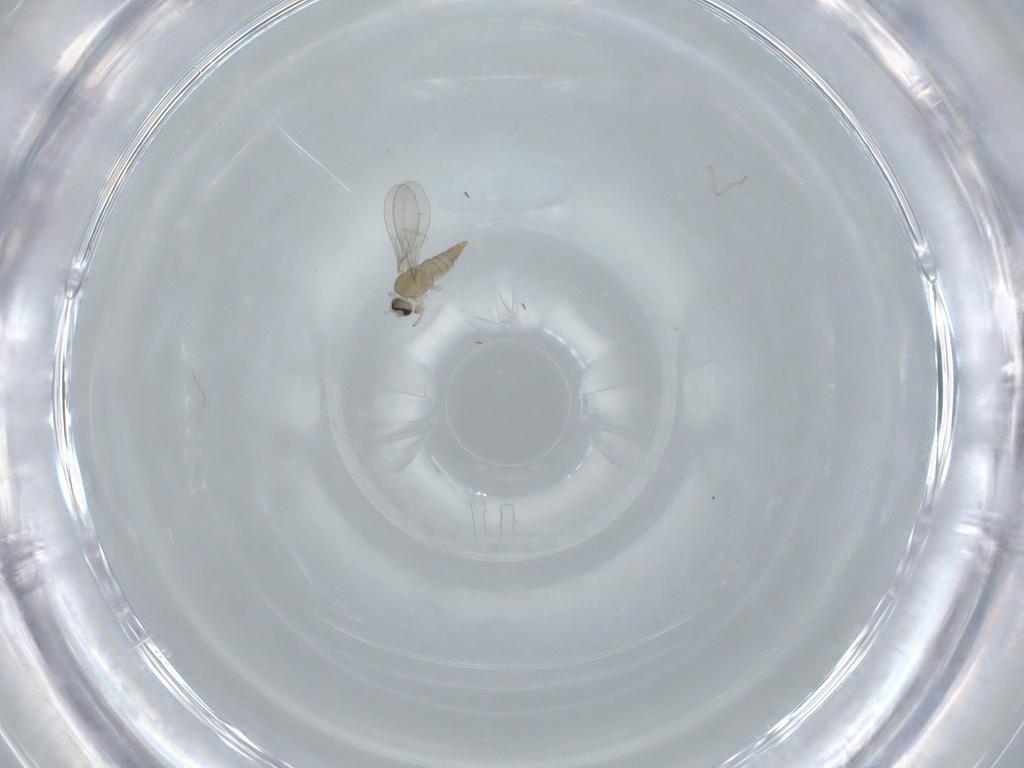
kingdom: Animalia
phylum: Arthropoda
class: Insecta
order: Diptera
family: Cecidomyiidae
